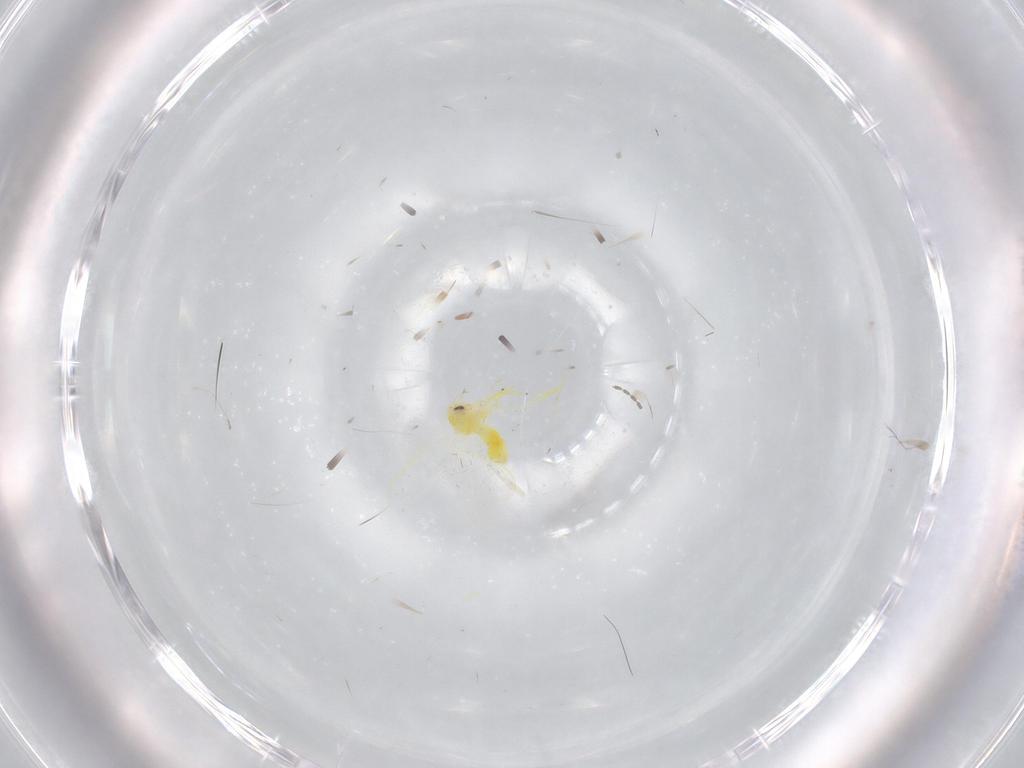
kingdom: Animalia
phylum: Arthropoda
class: Insecta
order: Hemiptera
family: Aleyrodidae
